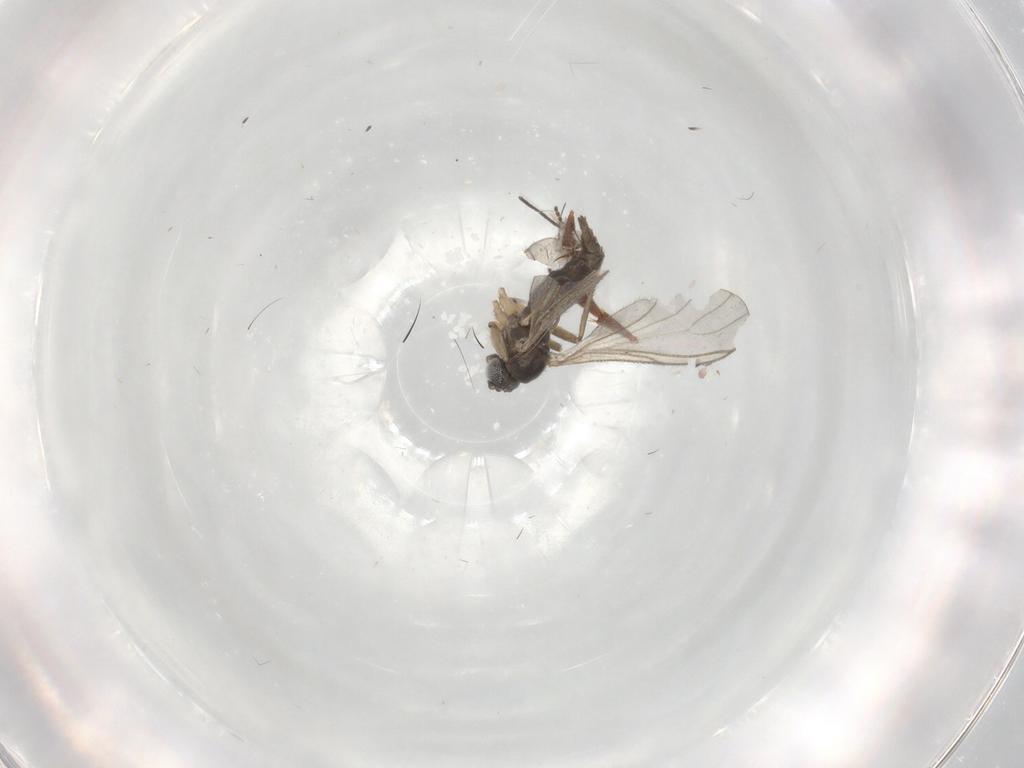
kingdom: Animalia
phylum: Arthropoda
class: Insecta
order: Diptera
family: Sciaridae
